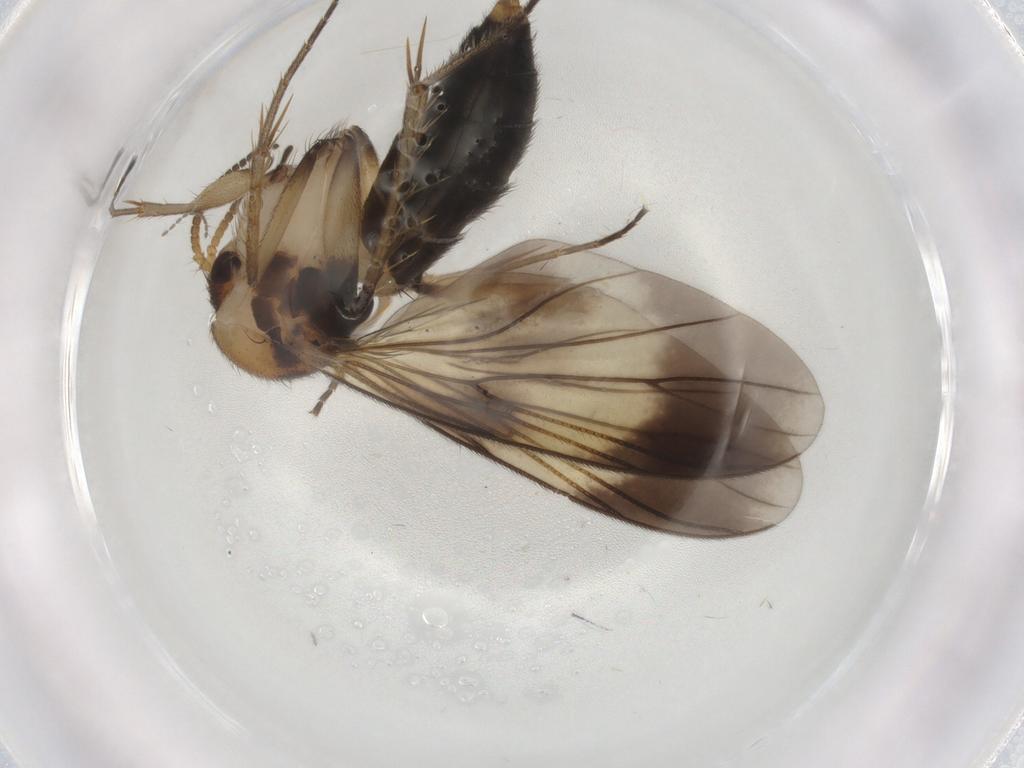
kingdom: Animalia
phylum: Arthropoda
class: Insecta
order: Diptera
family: Mycetophilidae
